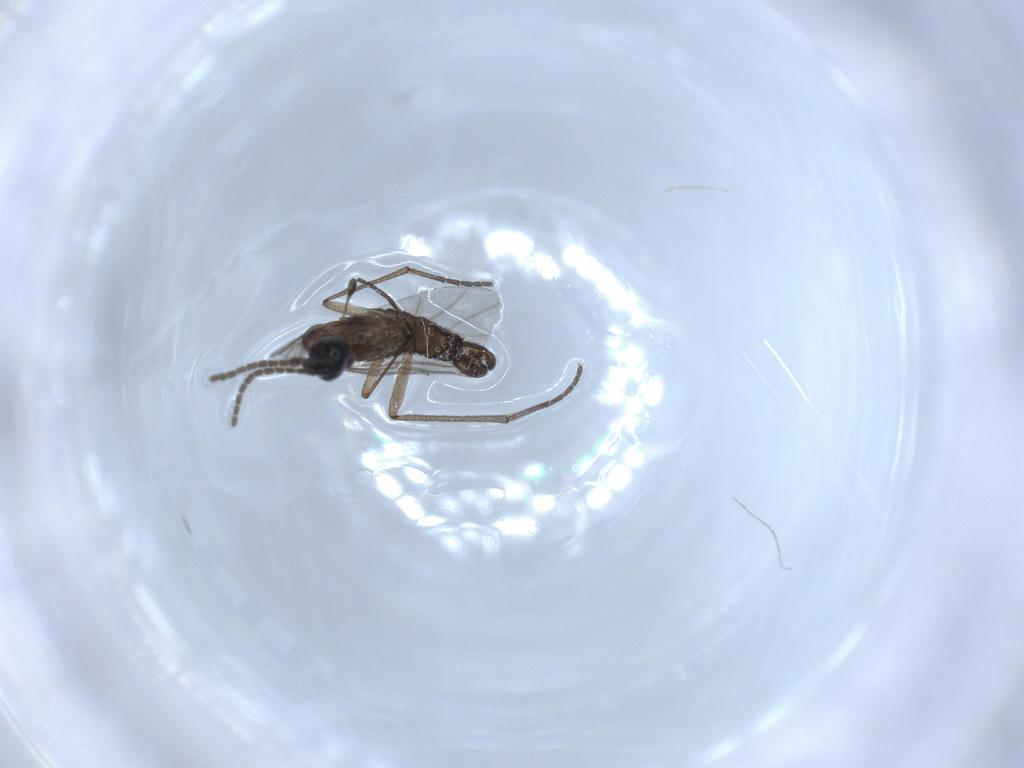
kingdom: Animalia
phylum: Arthropoda
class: Insecta
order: Diptera
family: Sciaridae
